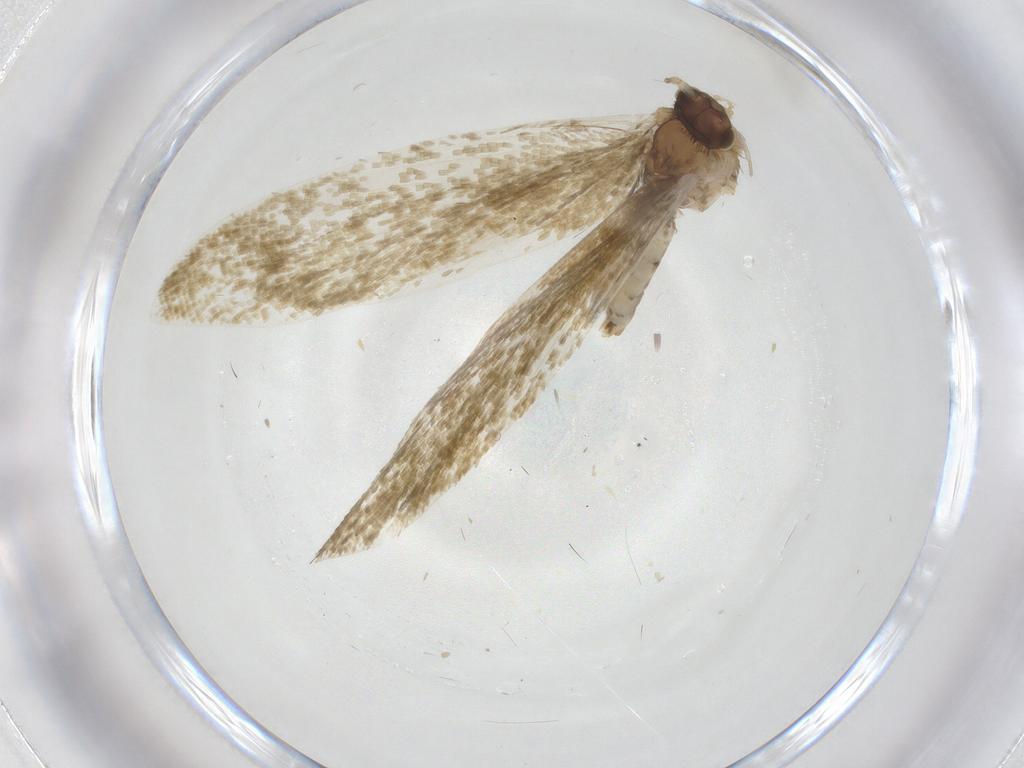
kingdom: Animalia
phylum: Arthropoda
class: Insecta
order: Lepidoptera
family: Tineidae
